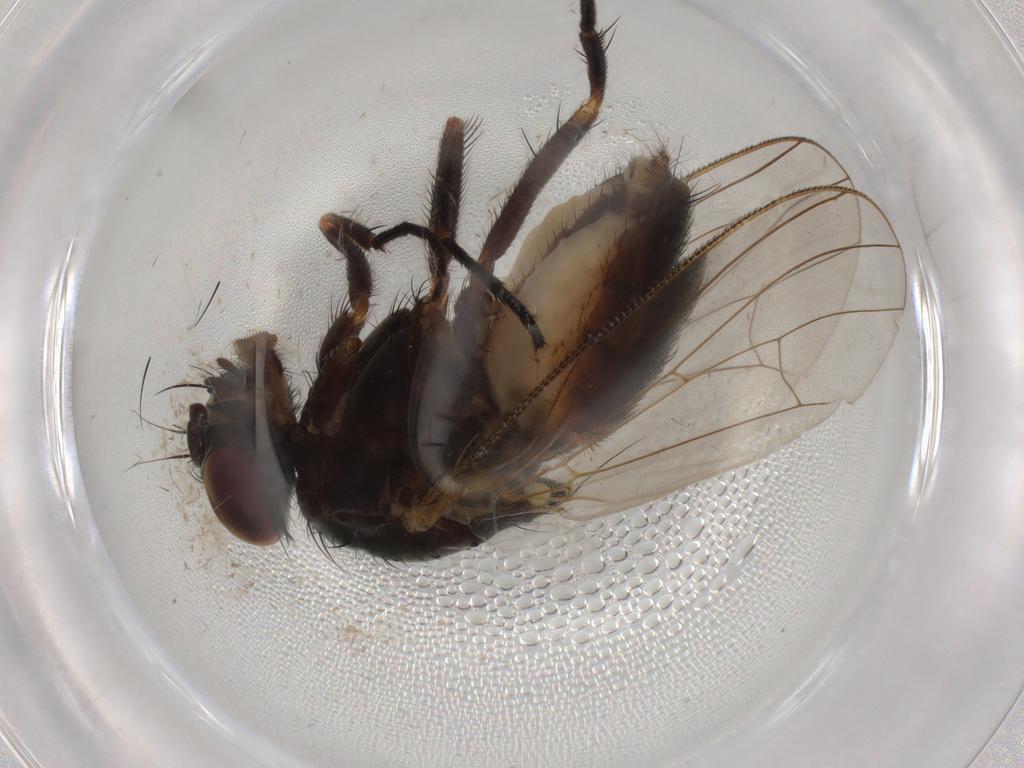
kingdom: Animalia
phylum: Arthropoda
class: Insecta
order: Diptera
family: Fannia
